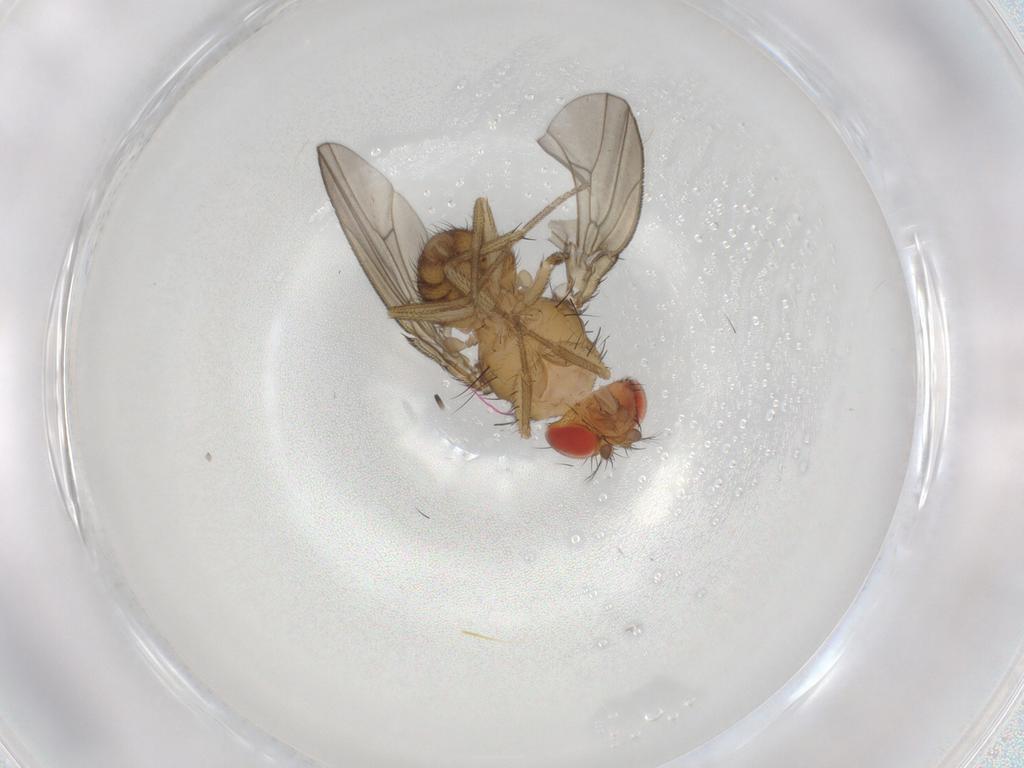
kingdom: Animalia
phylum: Arthropoda
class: Insecta
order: Diptera
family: Drosophilidae
